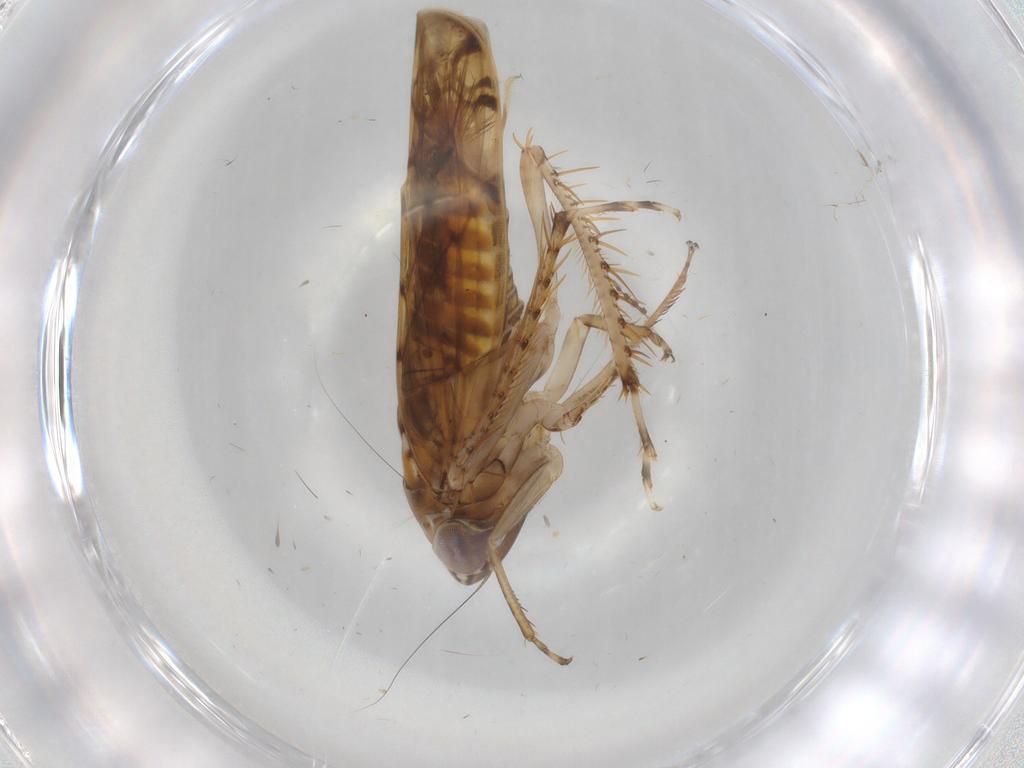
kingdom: Animalia
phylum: Arthropoda
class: Insecta
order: Hemiptera
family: Coccoidea_incertae_sedis
